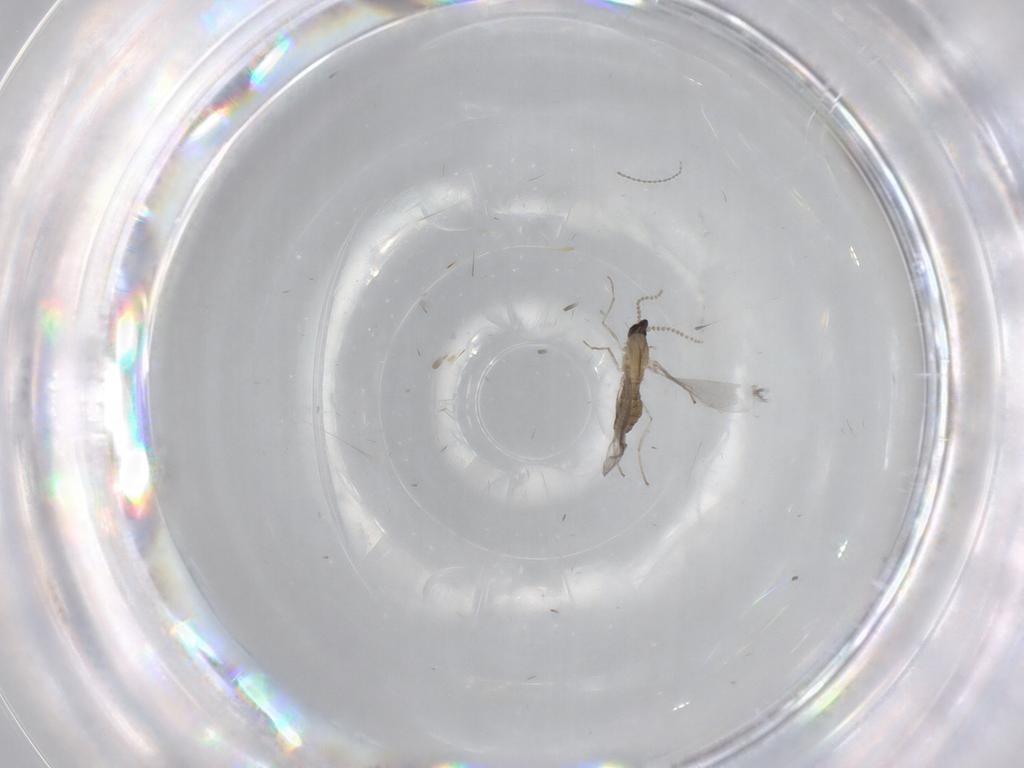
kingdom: Animalia
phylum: Arthropoda
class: Insecta
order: Diptera
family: Cecidomyiidae
